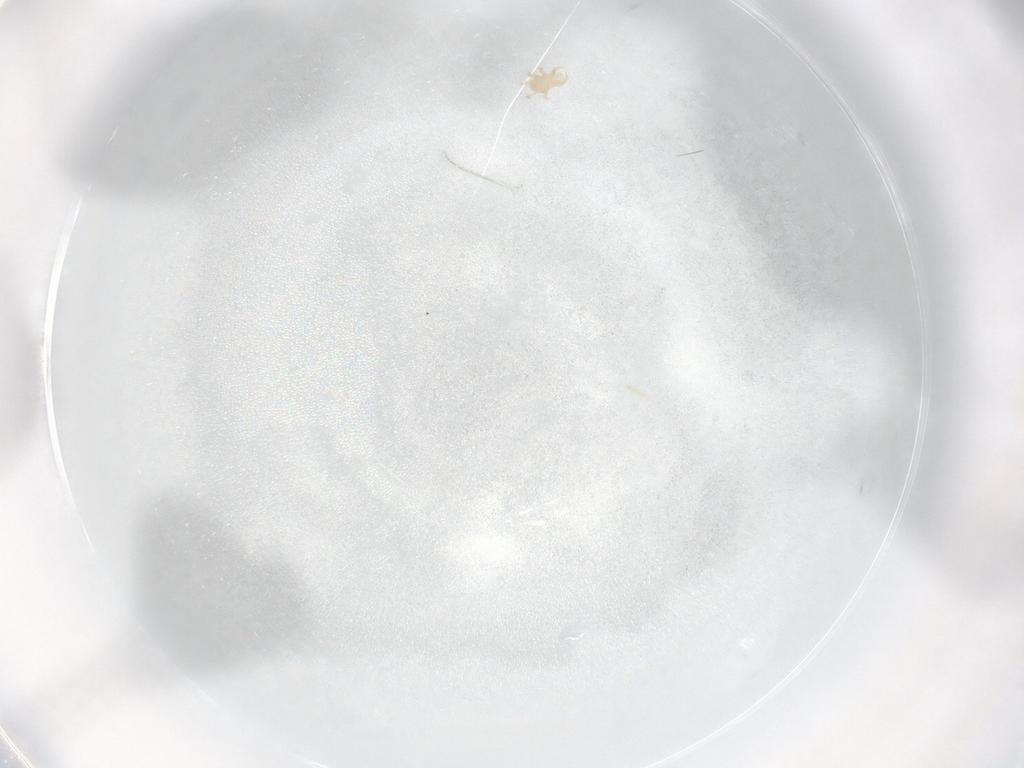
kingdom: Animalia
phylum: Arthropoda
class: Arachnida
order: Mesostigmata
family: Halolaelapidae
